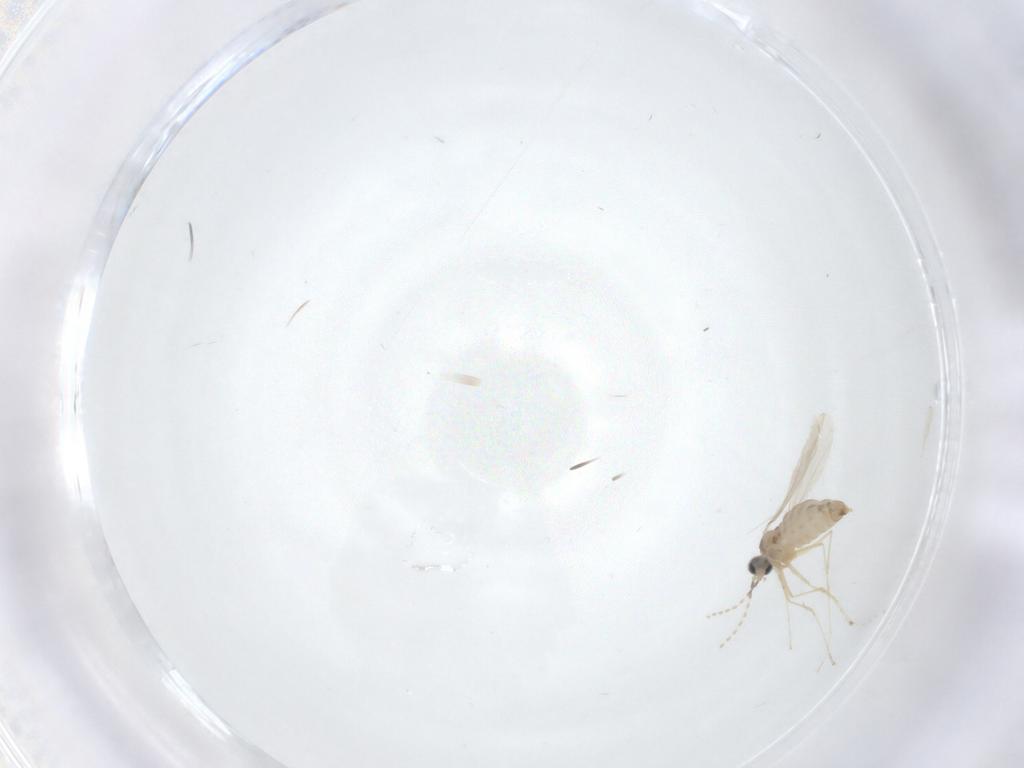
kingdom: Animalia
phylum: Arthropoda
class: Insecta
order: Diptera
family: Cecidomyiidae
